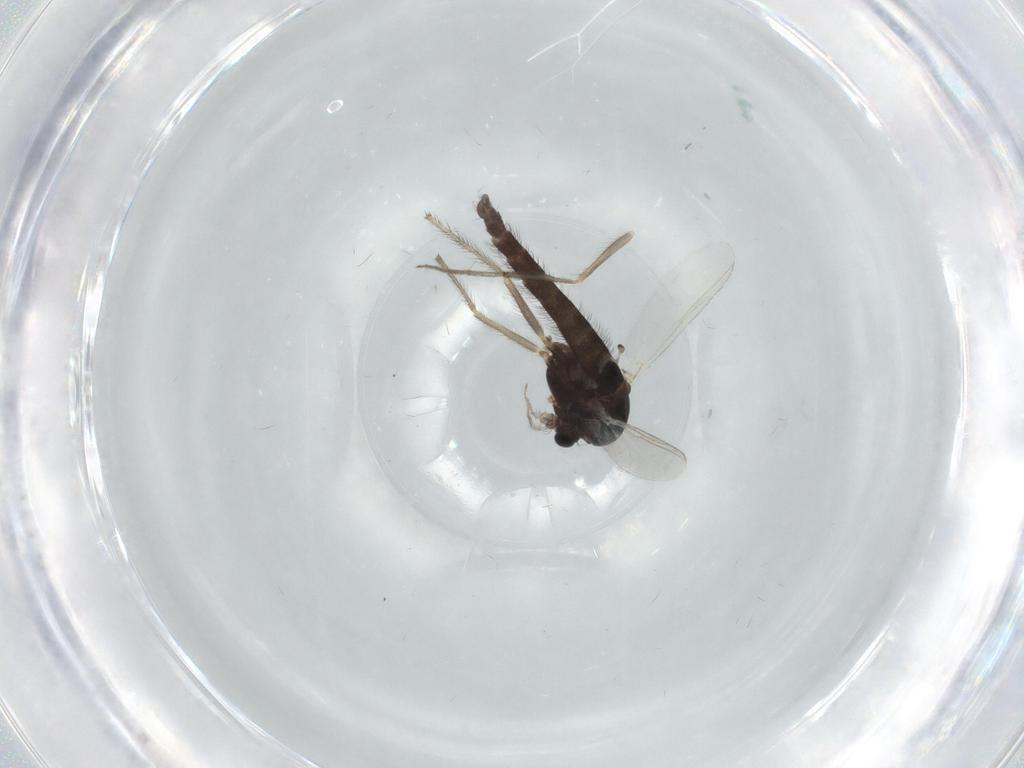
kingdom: Animalia
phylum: Arthropoda
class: Insecta
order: Diptera
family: Chironomidae
